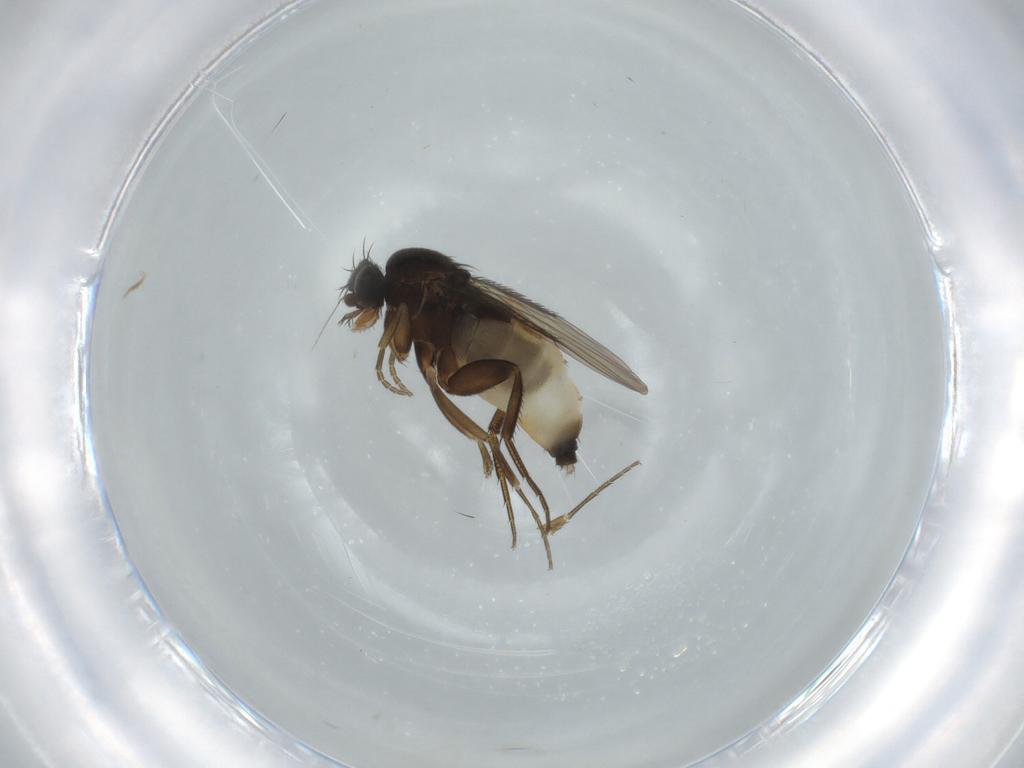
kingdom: Animalia
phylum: Arthropoda
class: Insecta
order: Diptera
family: Phoridae
